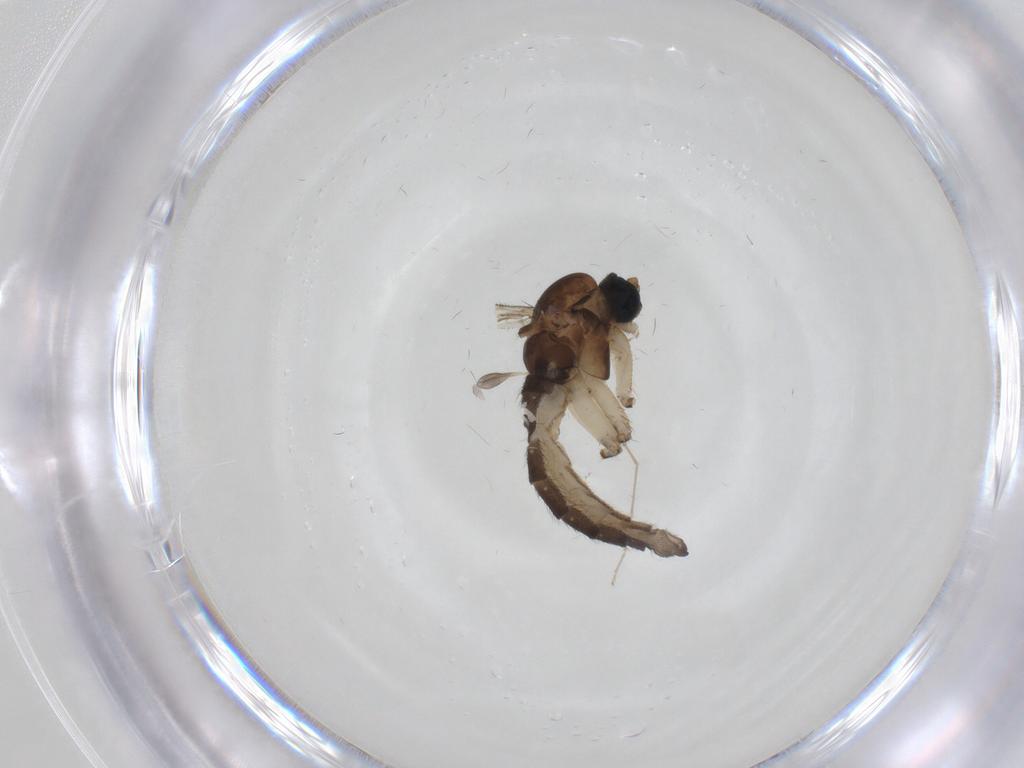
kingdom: Animalia
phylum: Arthropoda
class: Insecta
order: Diptera
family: Sciaridae
